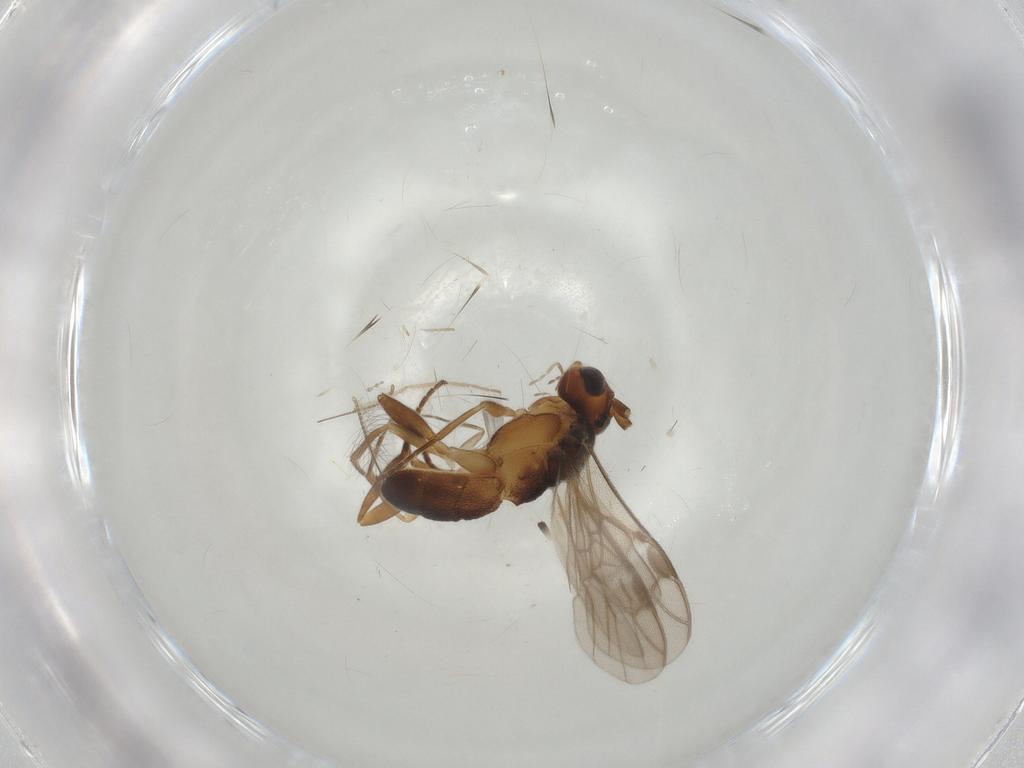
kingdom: Animalia
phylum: Arthropoda
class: Insecta
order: Hymenoptera
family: Braconidae
